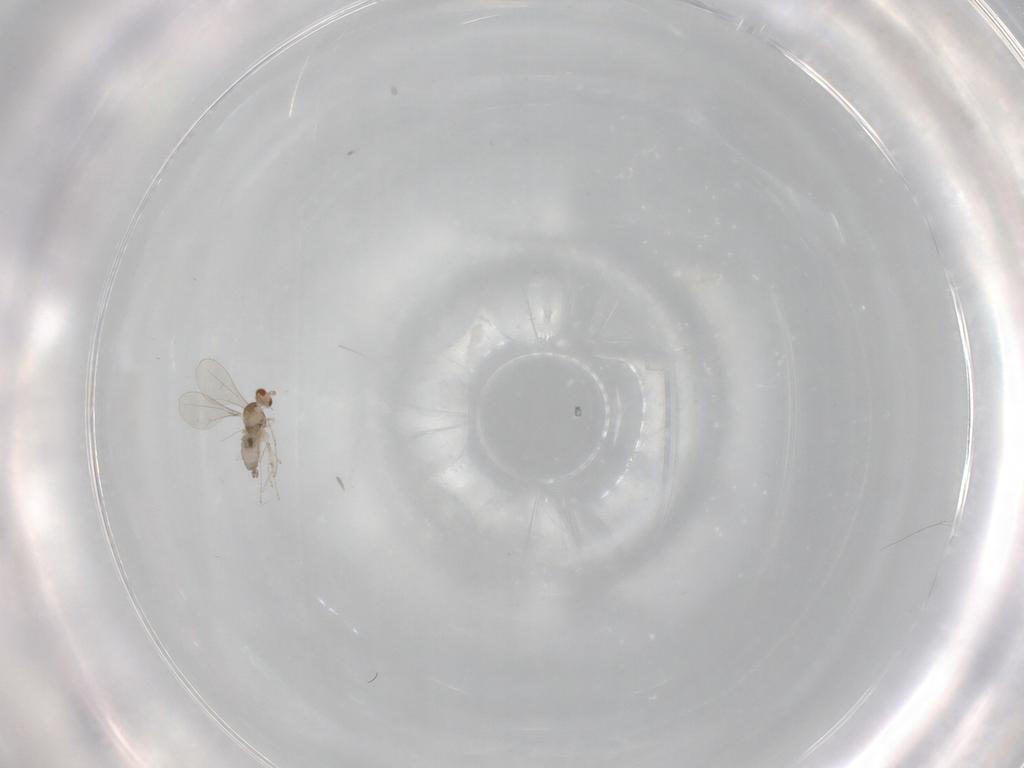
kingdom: Animalia
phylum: Arthropoda
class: Insecta
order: Diptera
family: Cecidomyiidae
